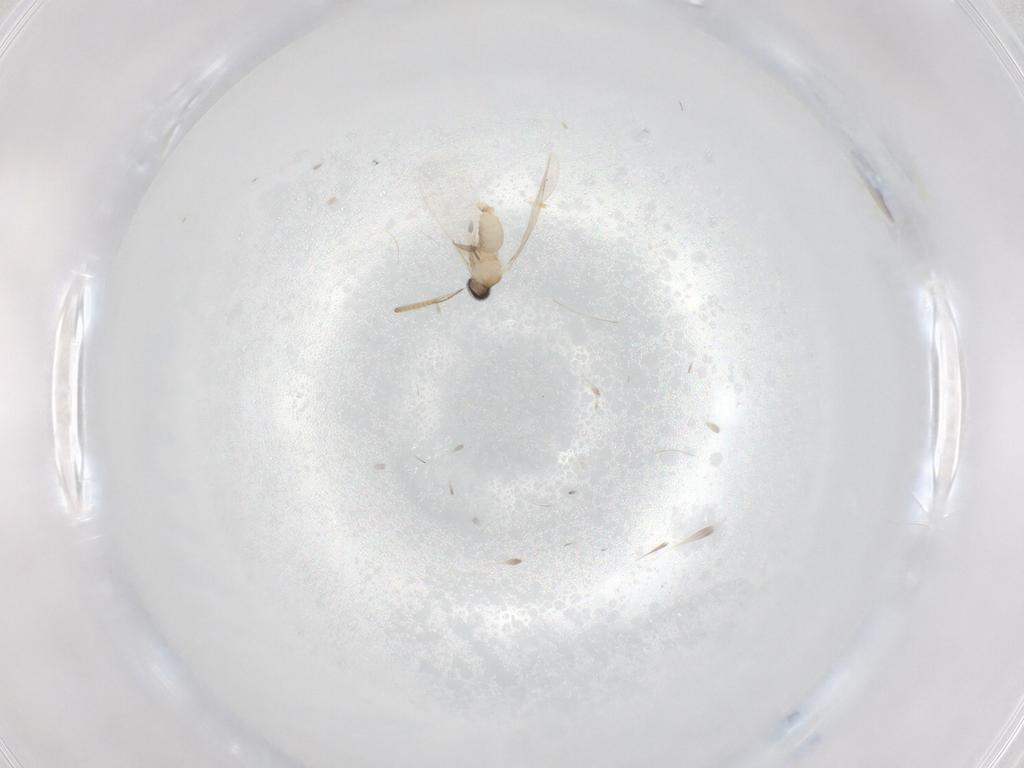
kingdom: Animalia
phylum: Arthropoda
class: Insecta
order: Diptera
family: Cecidomyiidae
